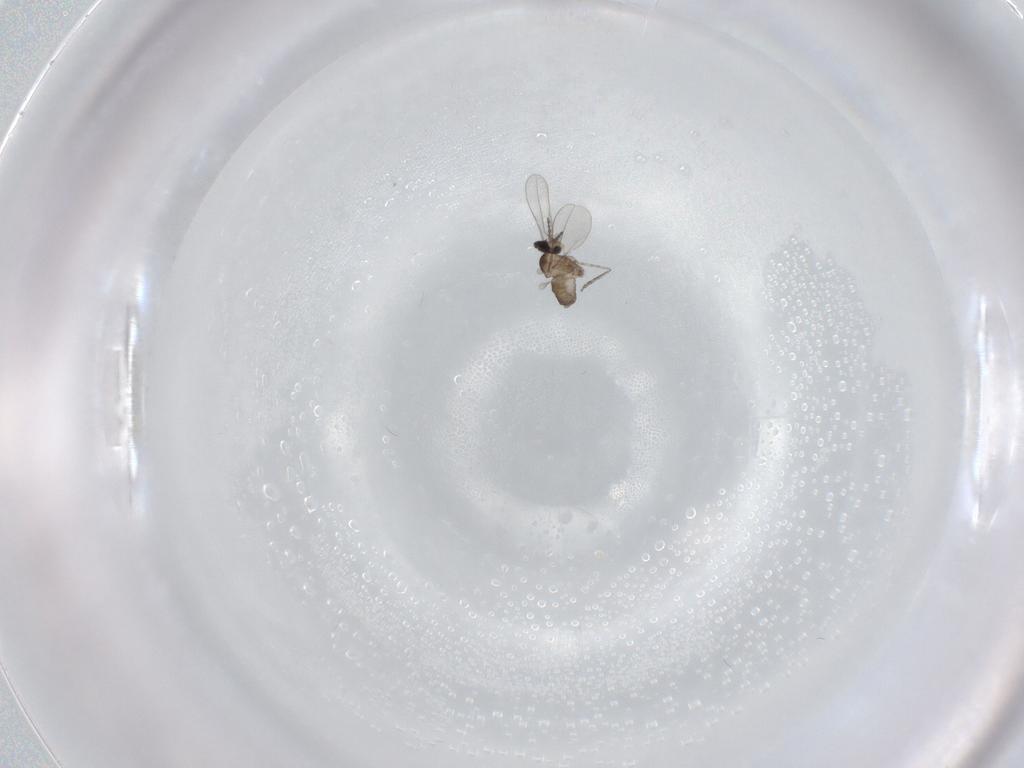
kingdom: Animalia
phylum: Arthropoda
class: Insecta
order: Diptera
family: Cecidomyiidae
